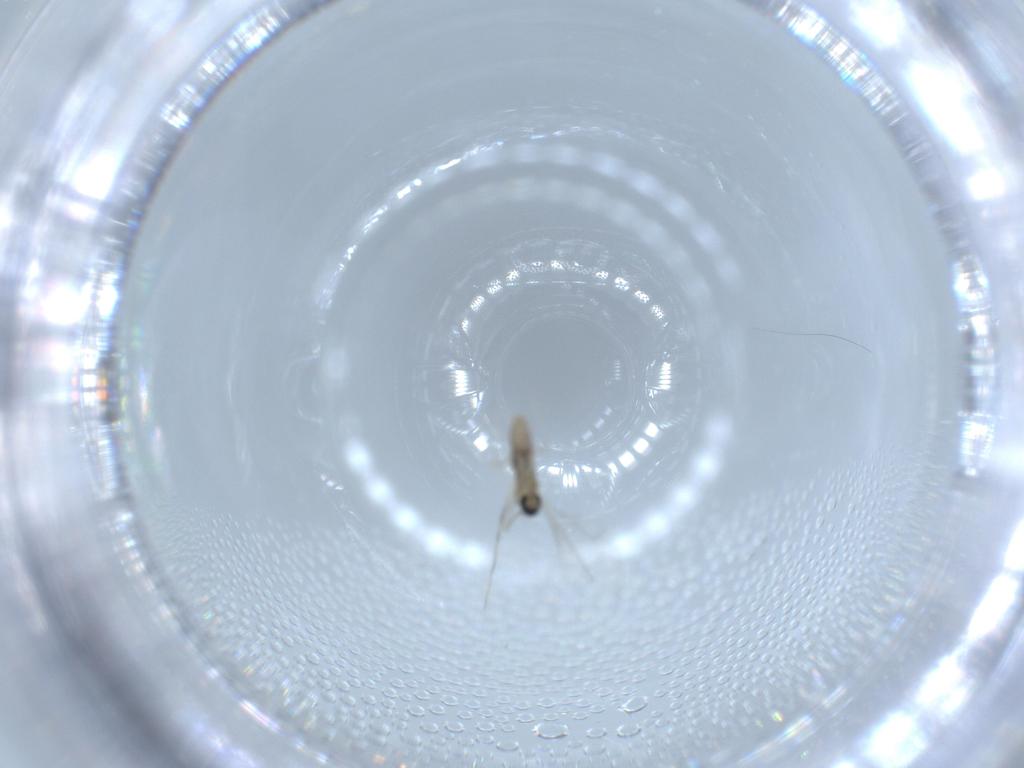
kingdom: Animalia
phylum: Arthropoda
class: Insecta
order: Diptera
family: Cecidomyiidae
